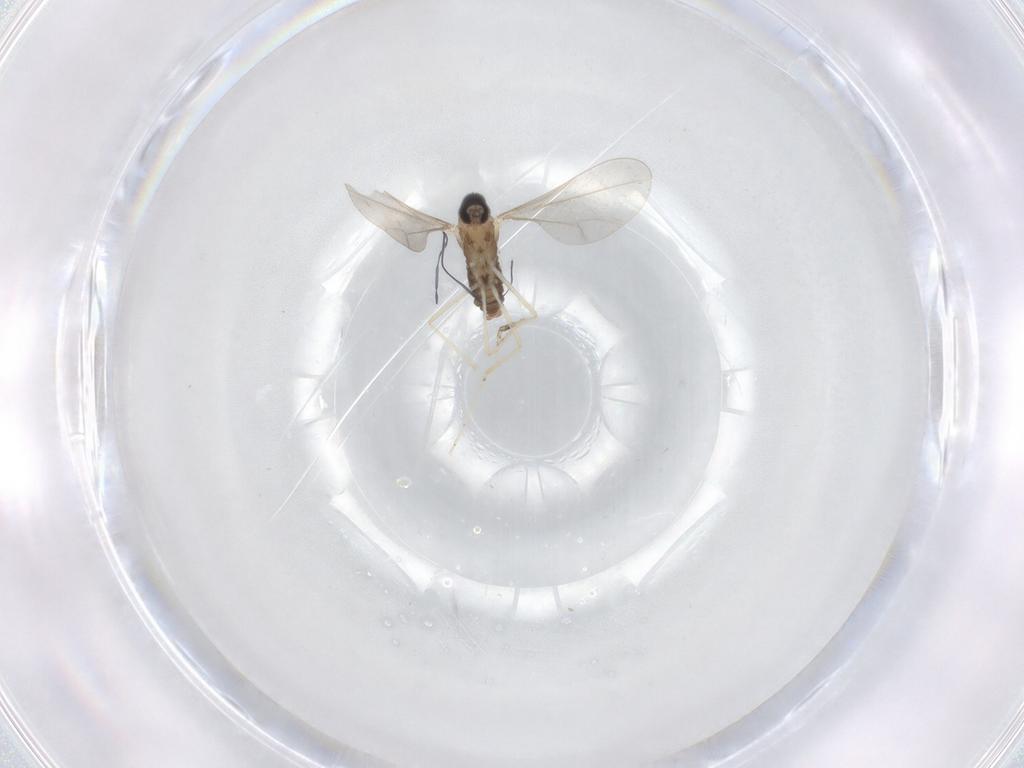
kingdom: Animalia
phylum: Arthropoda
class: Insecta
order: Diptera
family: Cecidomyiidae
